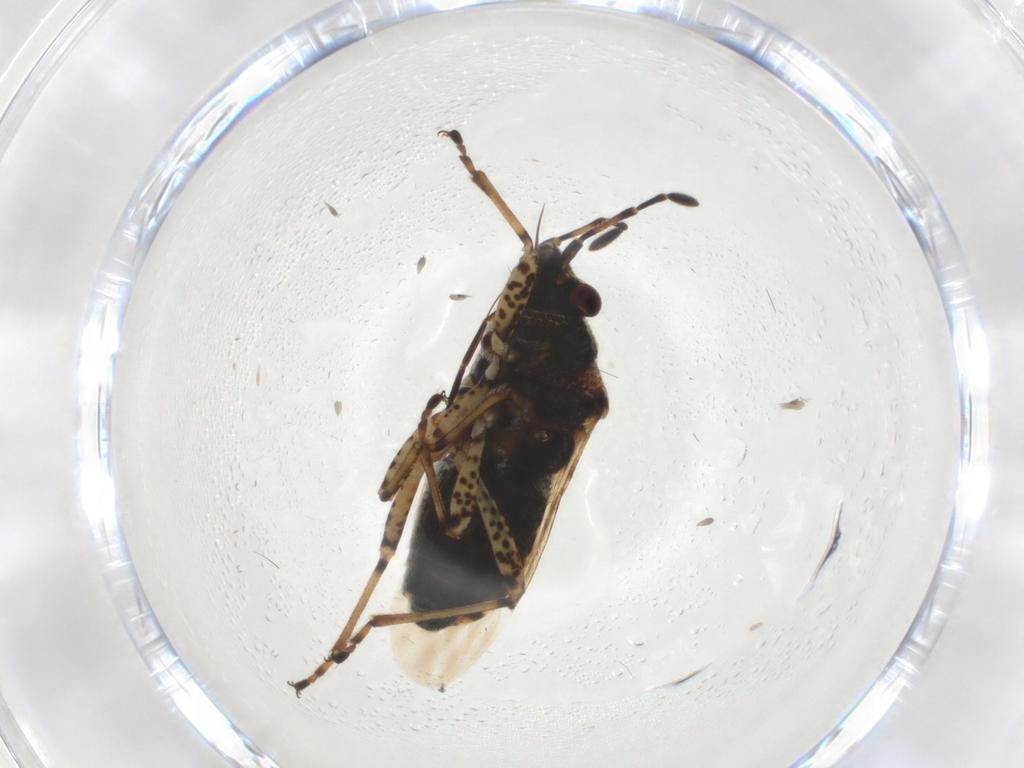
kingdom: Animalia
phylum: Arthropoda
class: Insecta
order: Hemiptera
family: Lygaeidae
